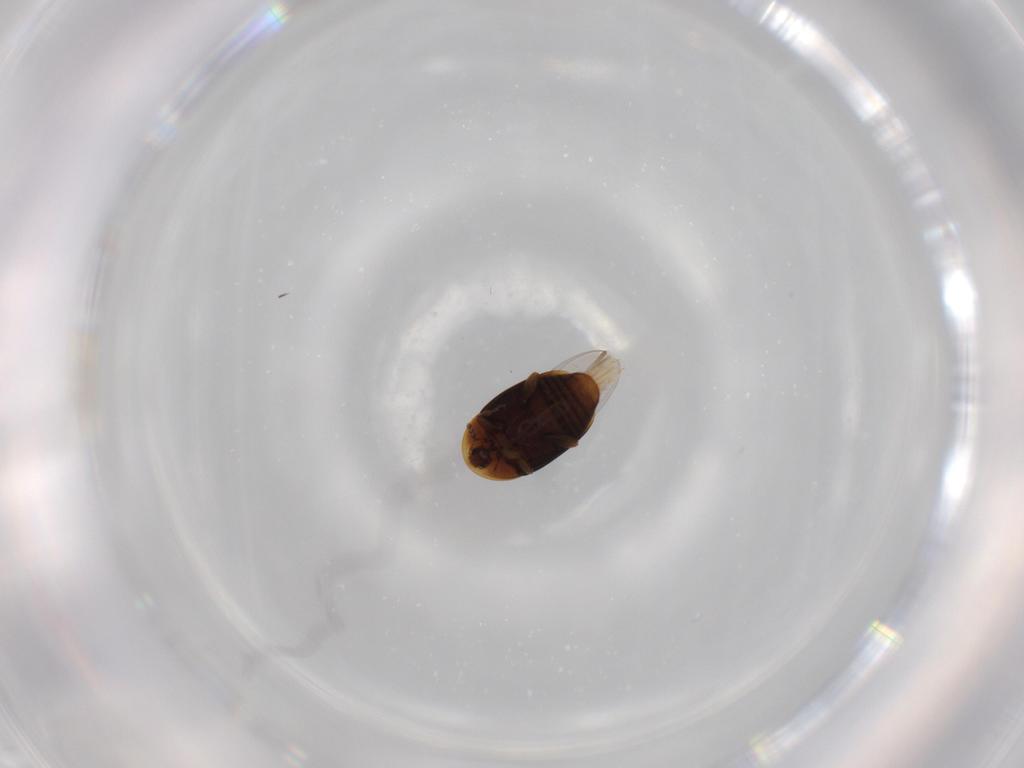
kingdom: Animalia
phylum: Arthropoda
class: Insecta
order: Coleoptera
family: Corylophidae
